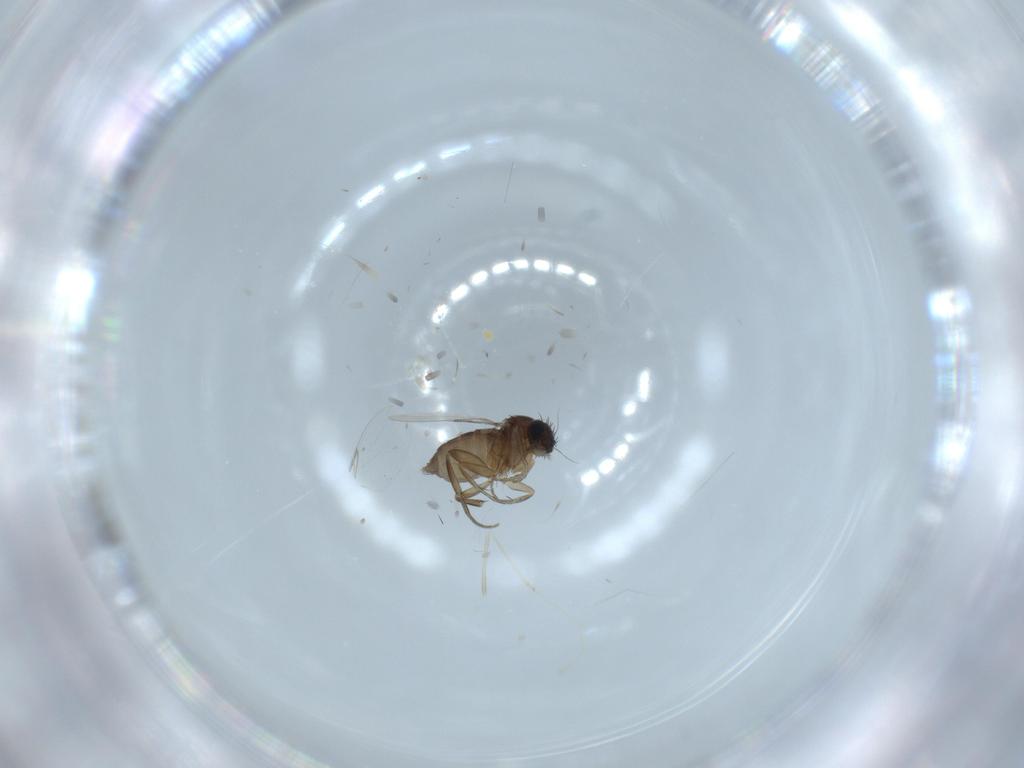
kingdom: Animalia
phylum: Arthropoda
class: Insecta
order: Diptera
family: Phoridae
